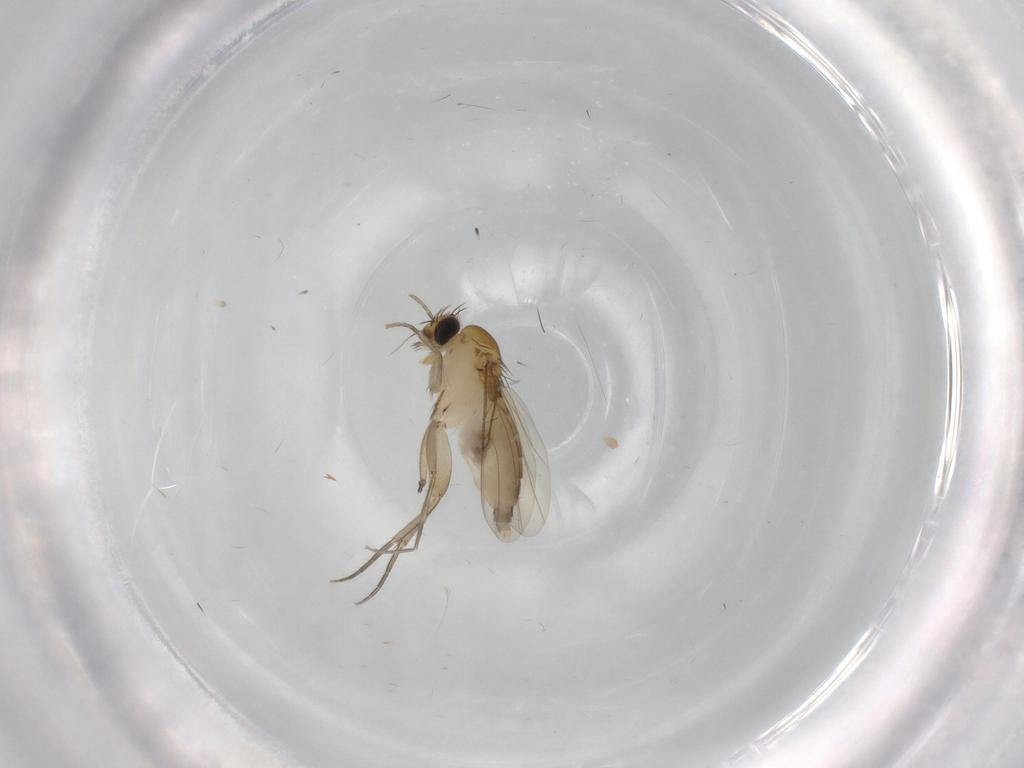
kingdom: Animalia
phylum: Arthropoda
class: Insecta
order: Diptera
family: Phoridae
